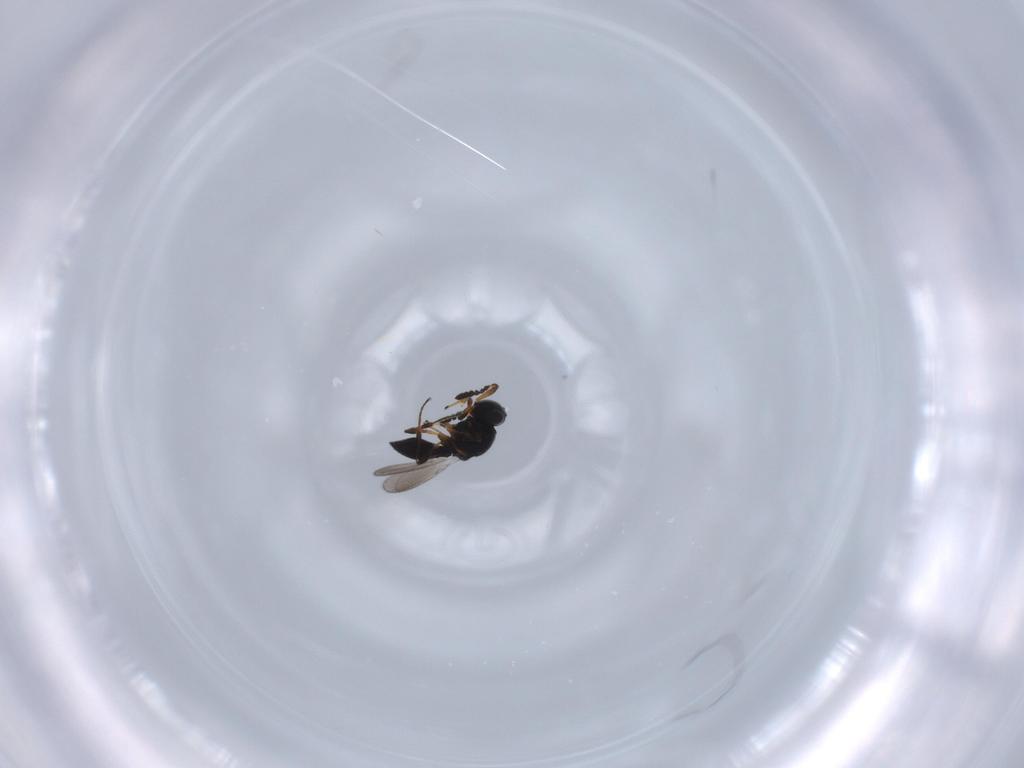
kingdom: Animalia
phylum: Arthropoda
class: Insecta
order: Hymenoptera
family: Platygastridae
